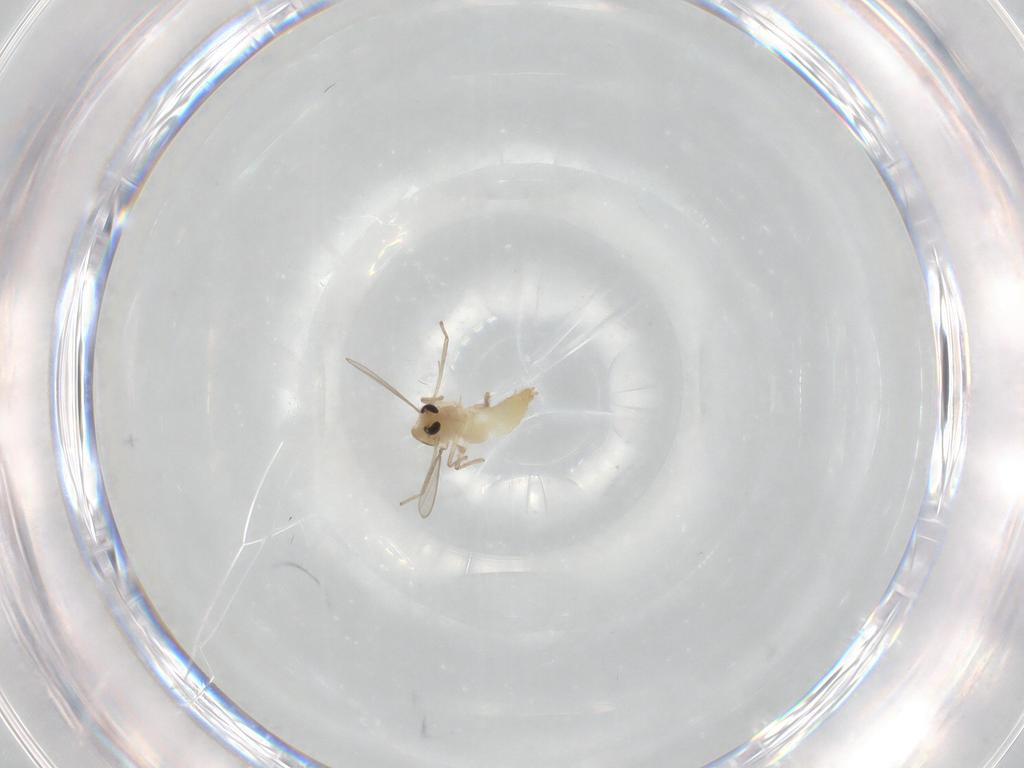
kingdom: Animalia
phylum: Arthropoda
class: Insecta
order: Diptera
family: Chironomidae
